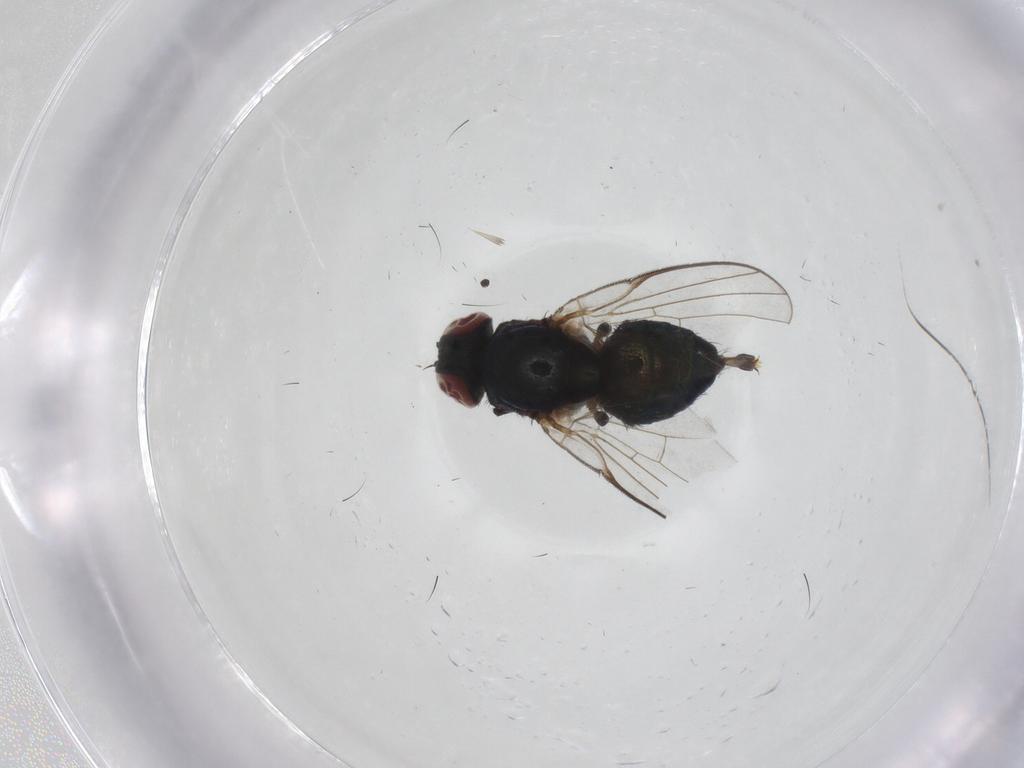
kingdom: Animalia
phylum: Arthropoda
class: Insecta
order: Diptera
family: Agromyzidae
